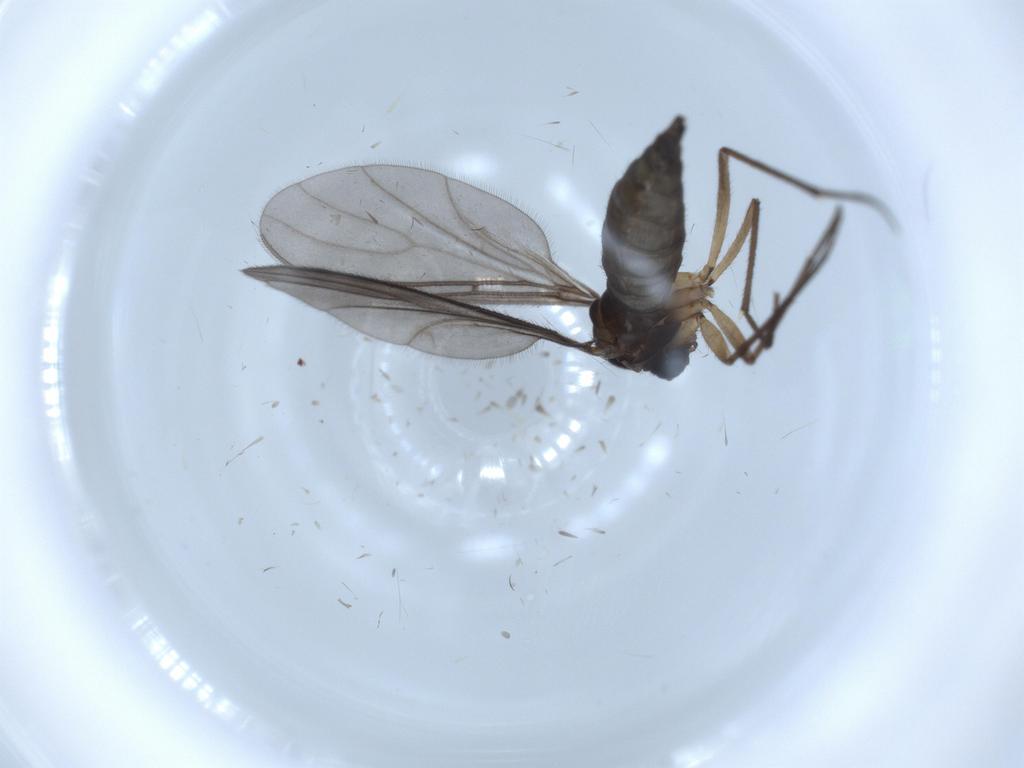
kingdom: Animalia
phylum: Arthropoda
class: Insecta
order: Diptera
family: Sciaridae
